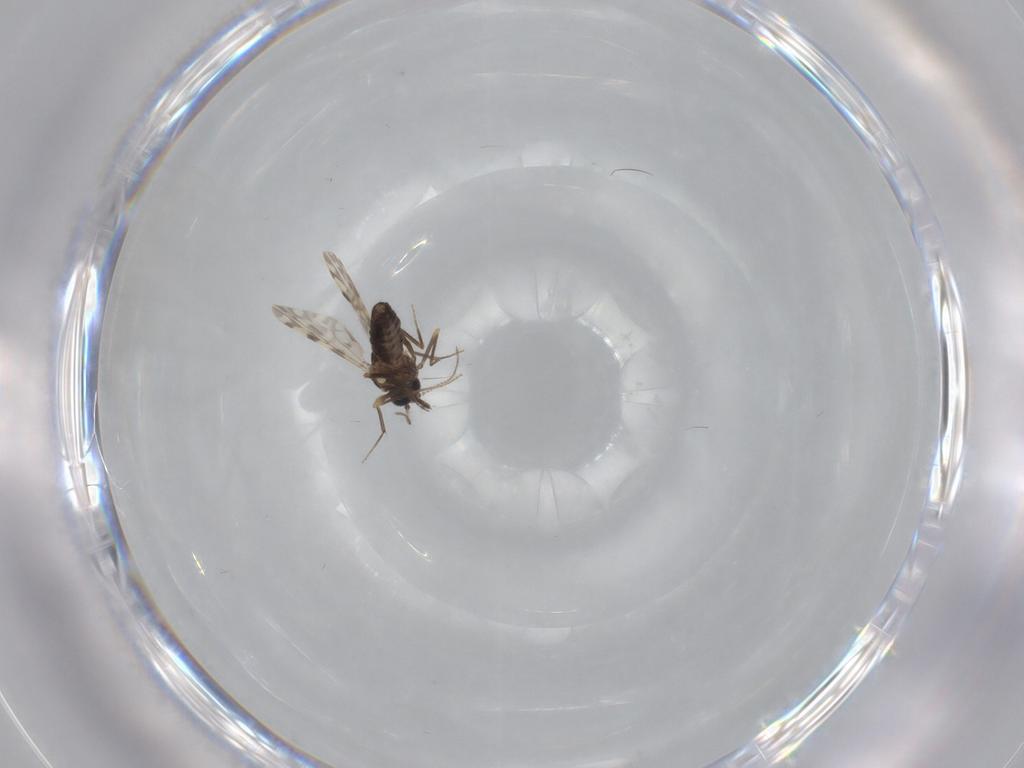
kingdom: Animalia
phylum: Arthropoda
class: Insecta
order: Diptera
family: Ceratopogonidae
